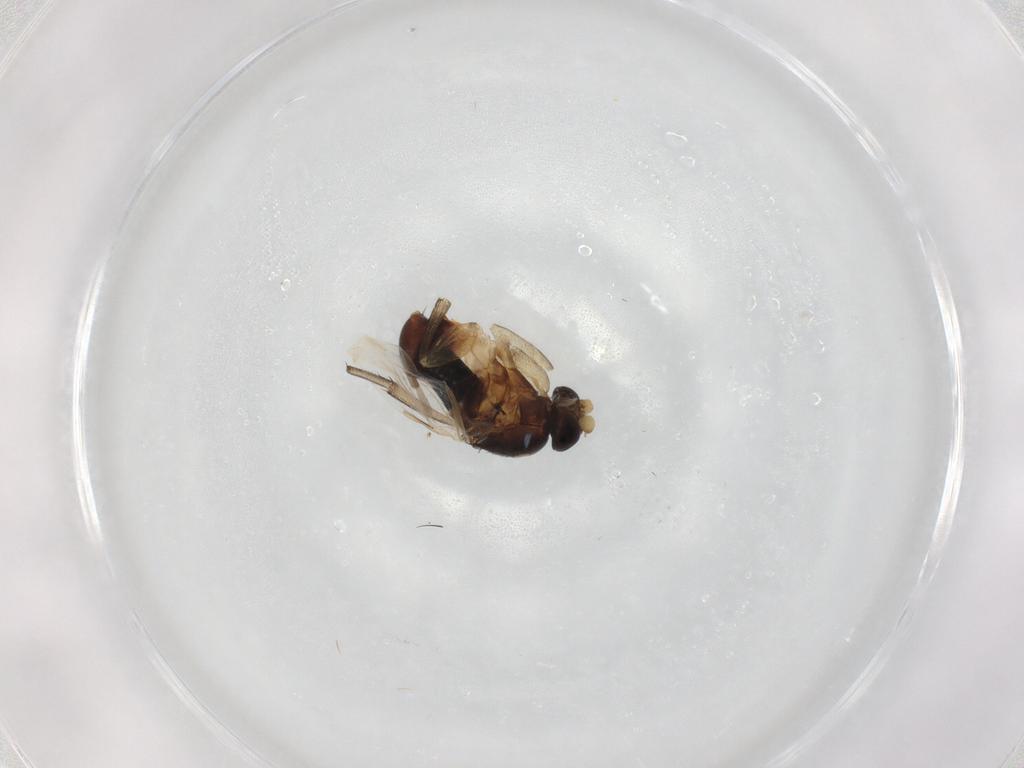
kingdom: Animalia
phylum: Arthropoda
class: Insecta
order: Diptera
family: Phoridae
